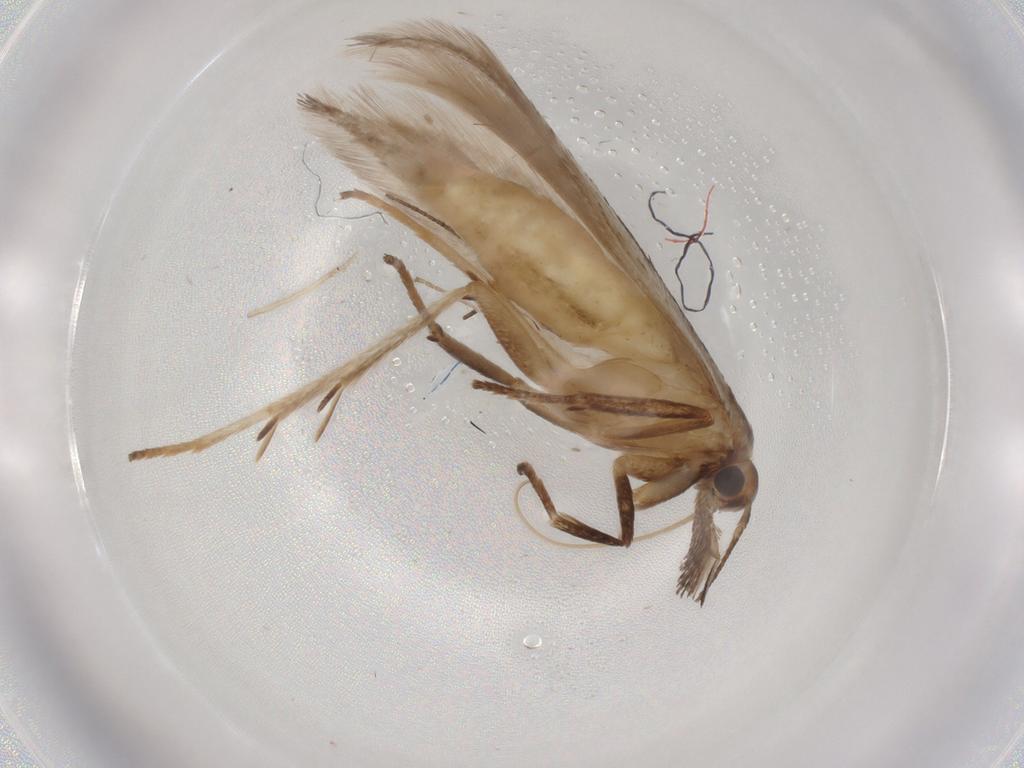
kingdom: Animalia
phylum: Arthropoda
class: Insecta
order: Lepidoptera
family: Gelechiidae
